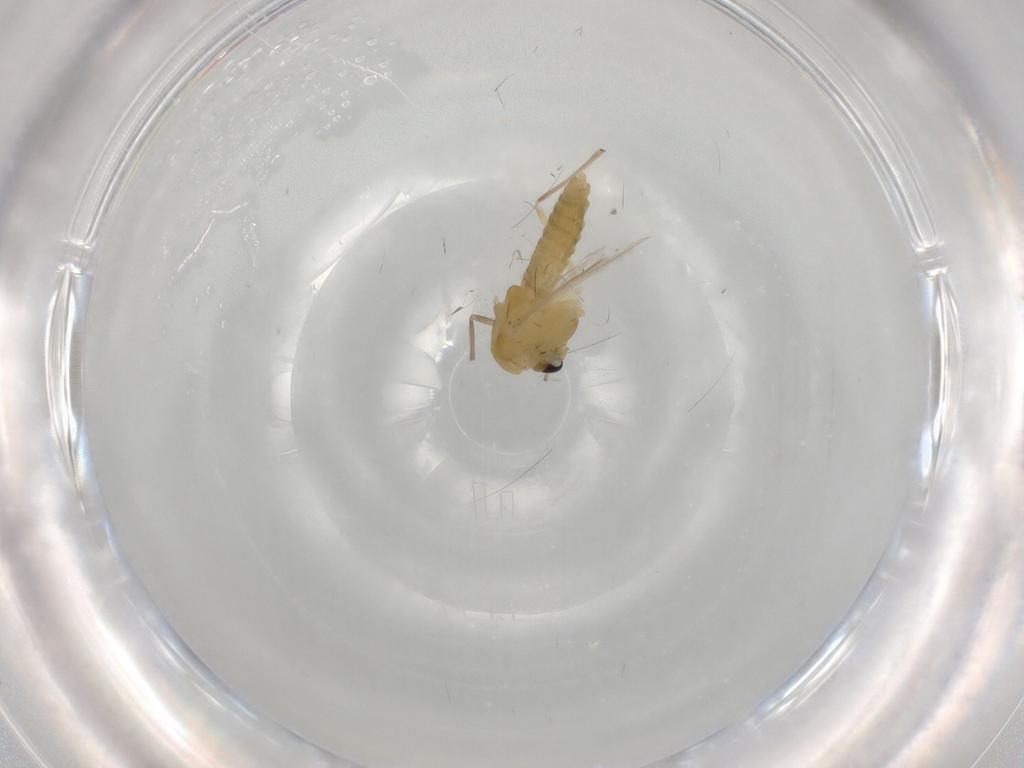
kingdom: Animalia
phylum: Arthropoda
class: Insecta
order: Diptera
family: Chironomidae
